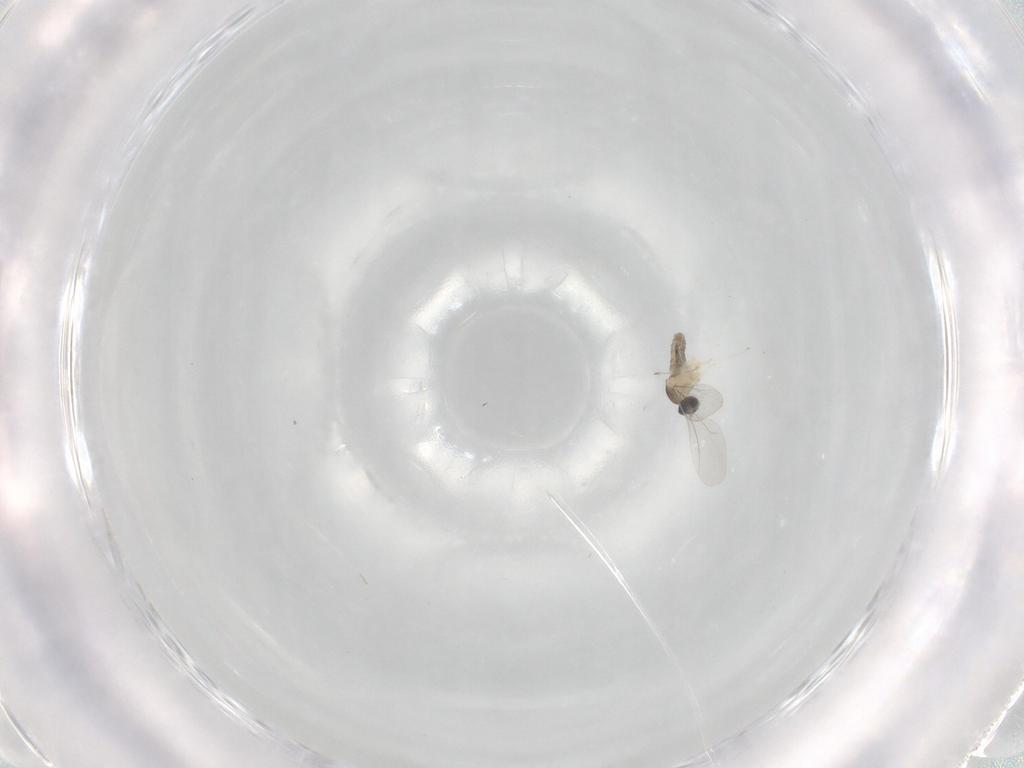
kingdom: Animalia
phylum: Arthropoda
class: Insecta
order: Diptera
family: Cecidomyiidae
